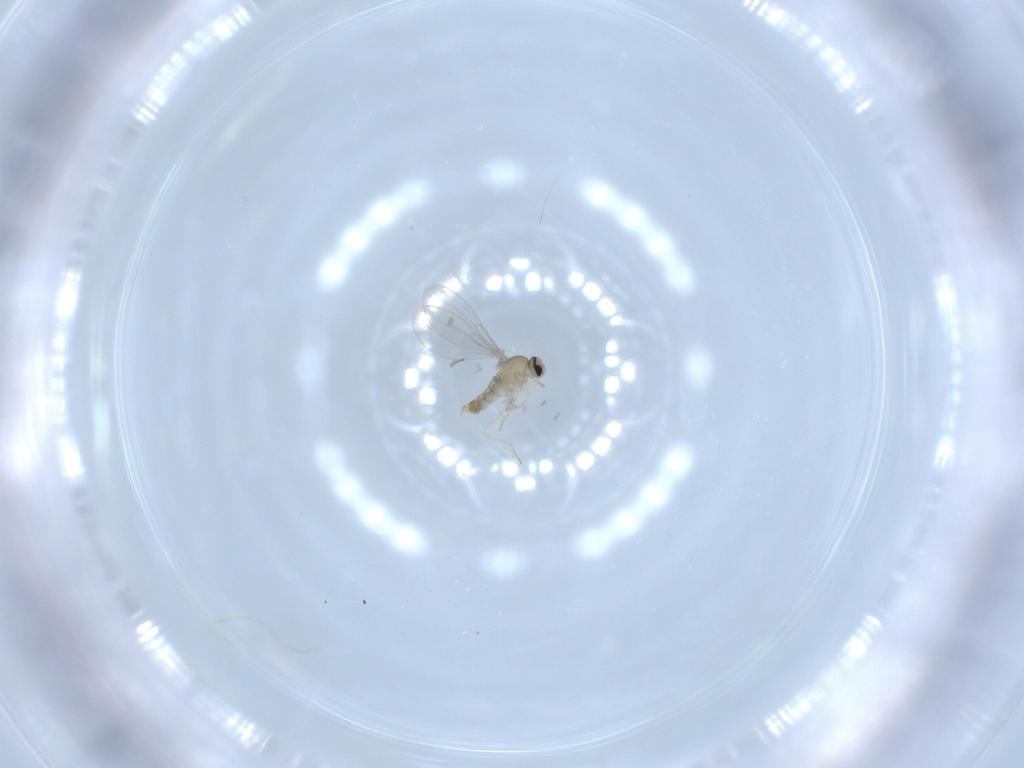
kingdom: Animalia
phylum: Arthropoda
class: Insecta
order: Diptera
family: Cecidomyiidae
